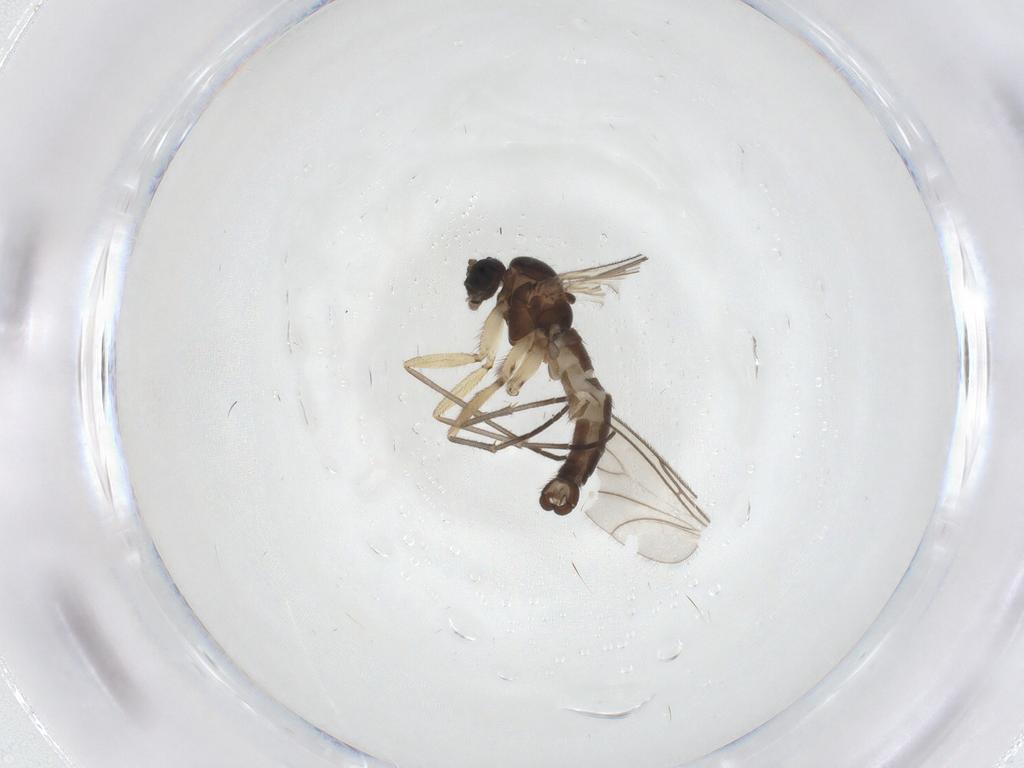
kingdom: Animalia
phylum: Arthropoda
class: Insecta
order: Diptera
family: Sciaridae
